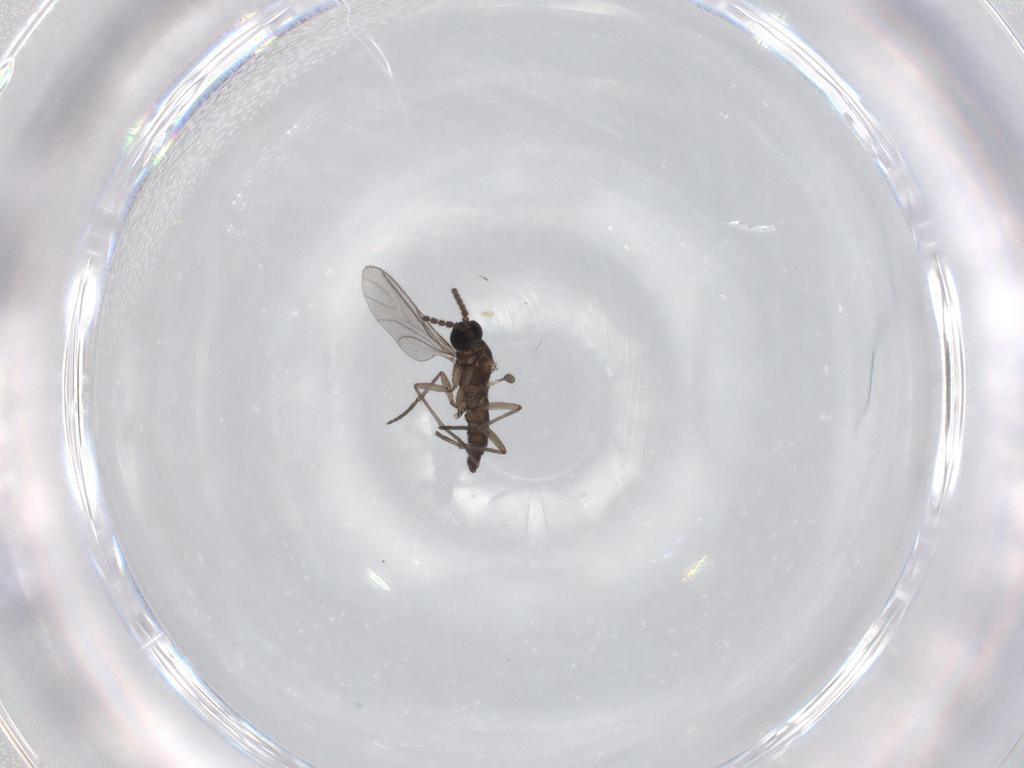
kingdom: Animalia
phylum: Arthropoda
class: Insecta
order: Diptera
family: Sciaridae
